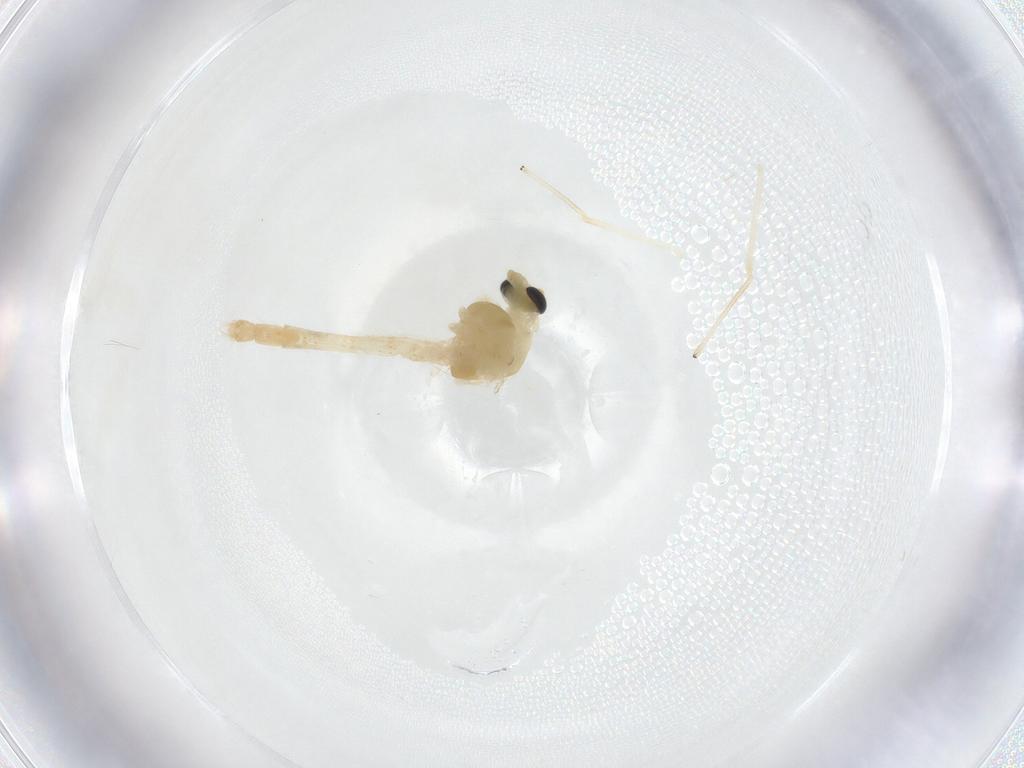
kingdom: Animalia
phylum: Arthropoda
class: Insecta
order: Diptera
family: Chironomidae
